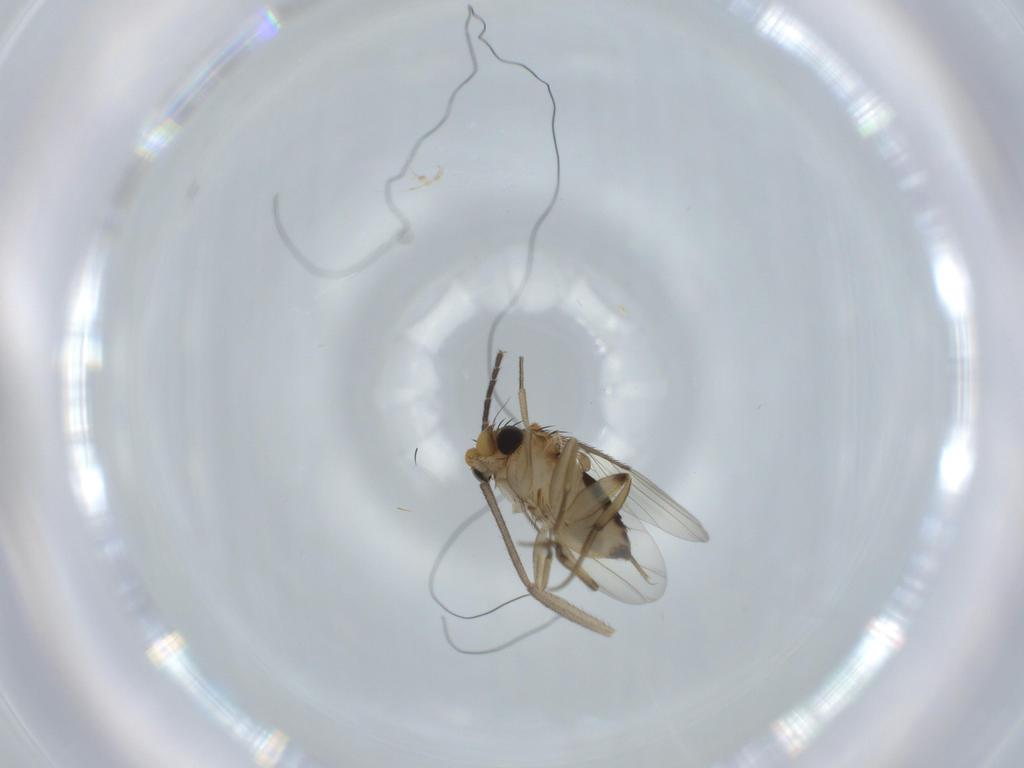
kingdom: Animalia
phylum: Arthropoda
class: Insecta
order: Diptera
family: Sciaridae
